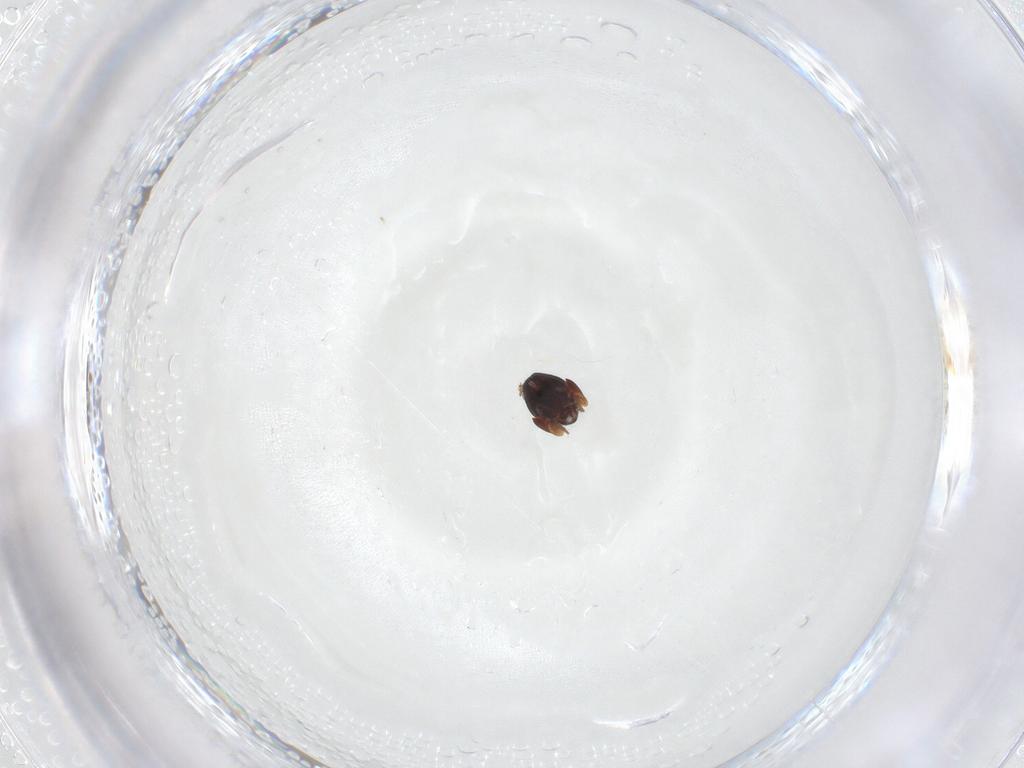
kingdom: Animalia
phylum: Arthropoda
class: Arachnida
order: Sarcoptiformes
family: Galumnidae
